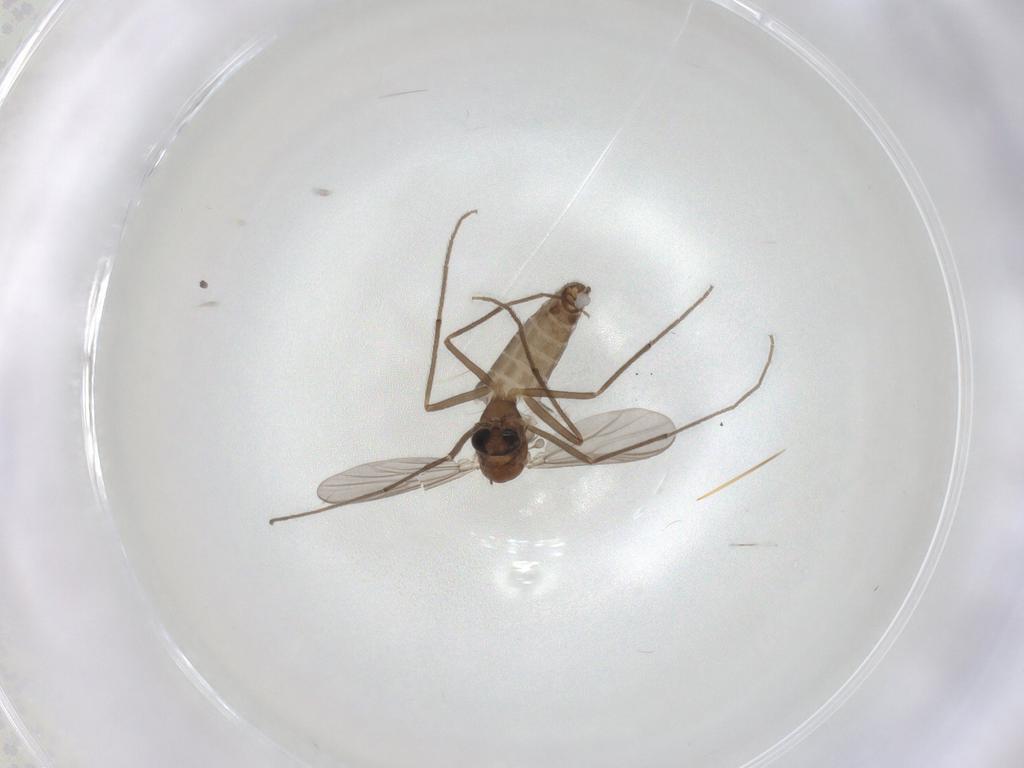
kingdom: Animalia
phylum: Arthropoda
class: Insecta
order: Diptera
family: Chironomidae
